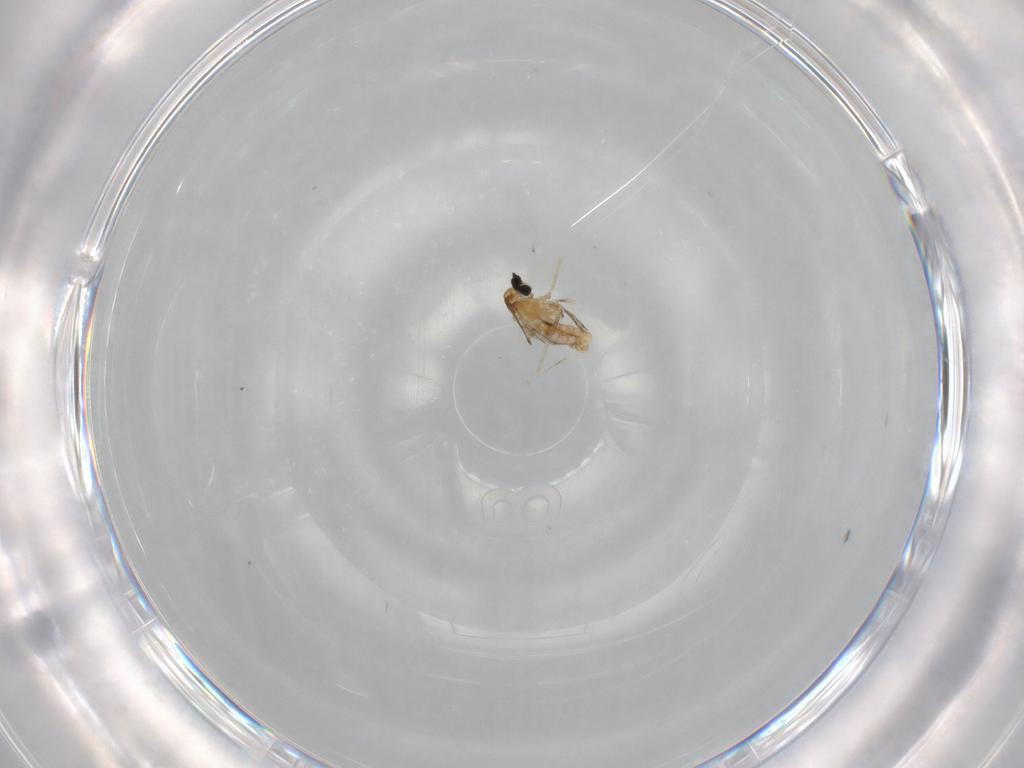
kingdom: Animalia
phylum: Arthropoda
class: Insecta
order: Diptera
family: Cecidomyiidae
